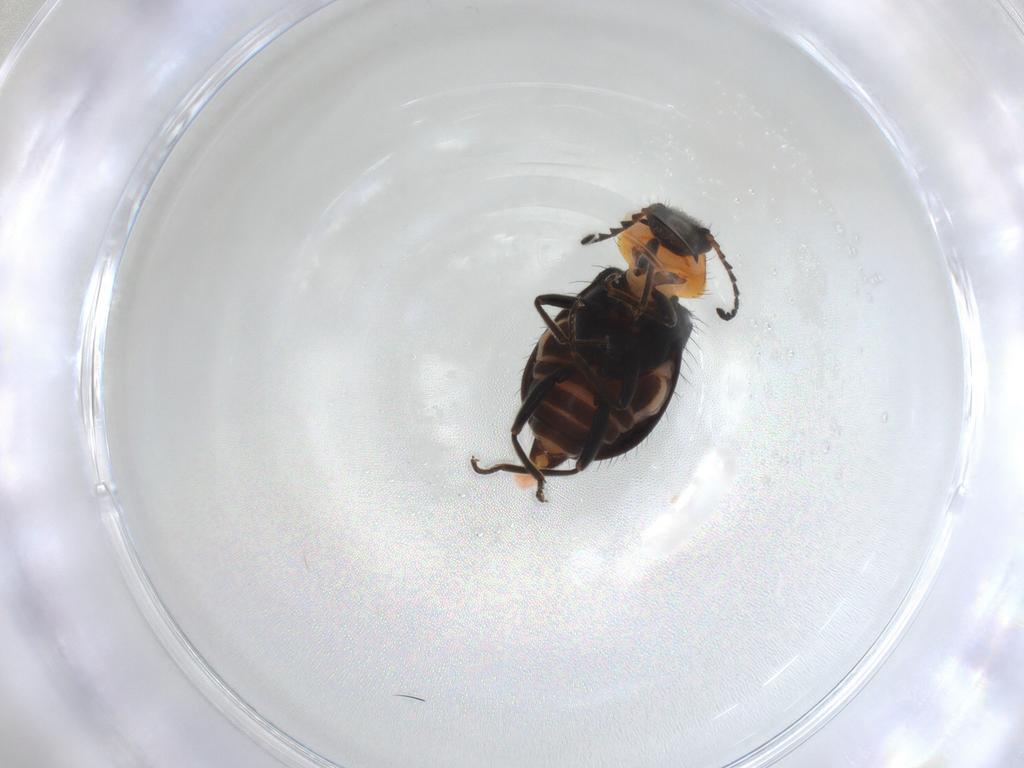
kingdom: Animalia
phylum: Arthropoda
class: Insecta
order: Coleoptera
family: Melyridae
